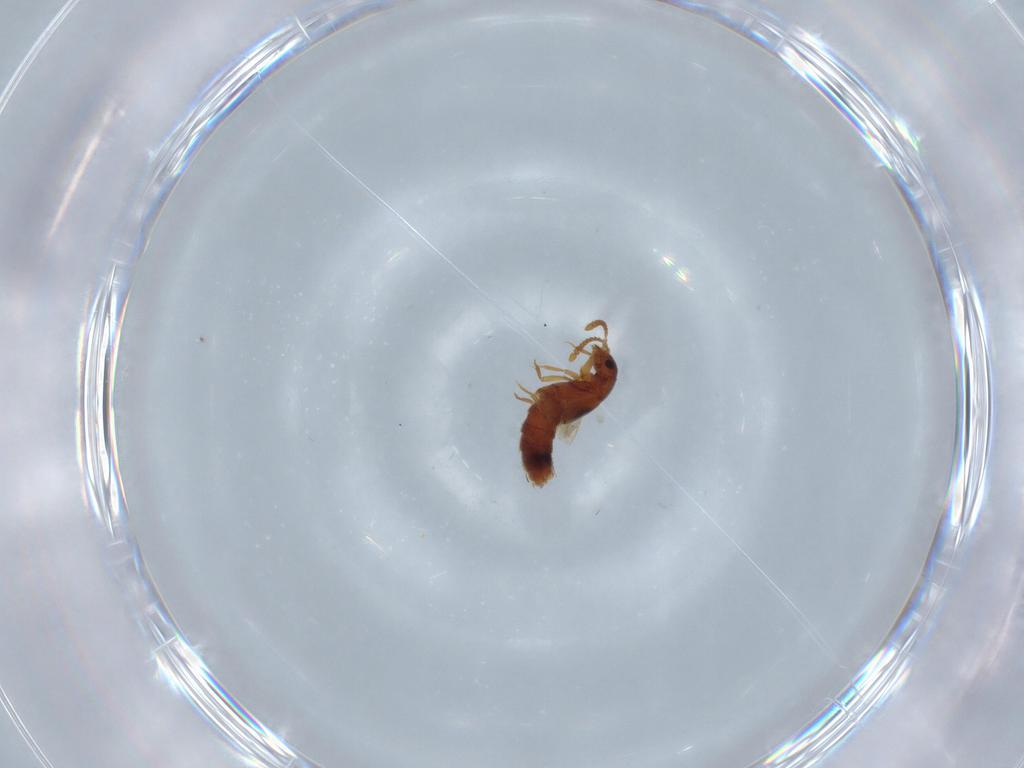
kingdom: Animalia
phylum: Arthropoda
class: Insecta
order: Coleoptera
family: Staphylinidae
